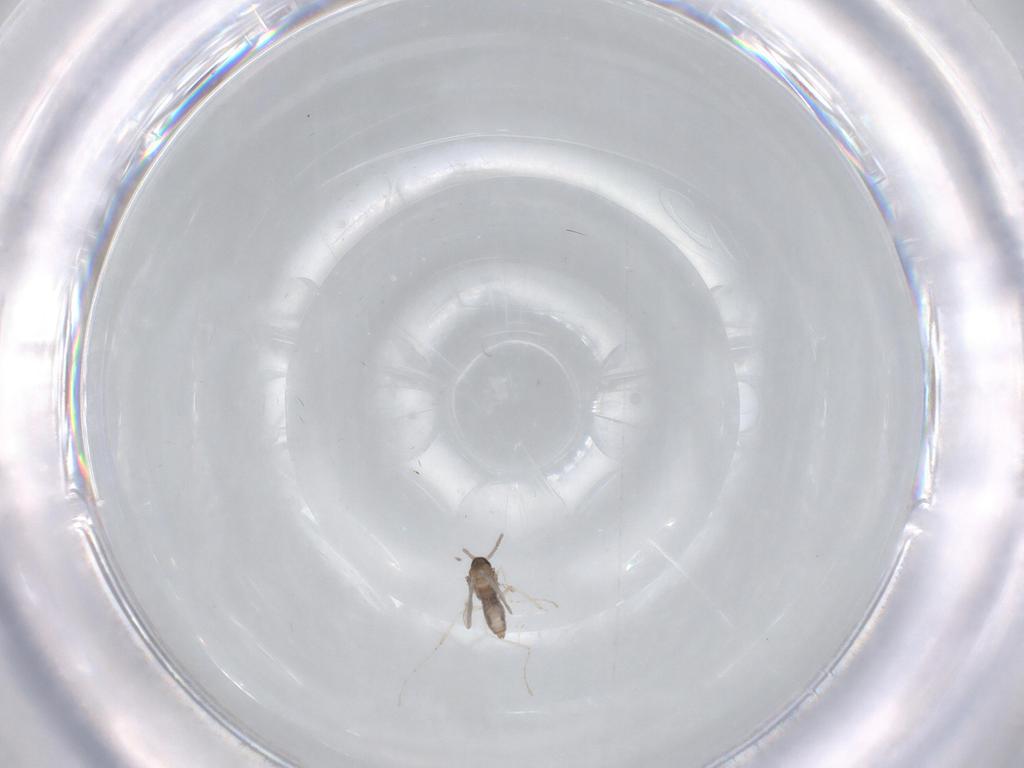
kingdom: Animalia
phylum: Arthropoda
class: Insecta
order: Diptera
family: Cecidomyiidae
